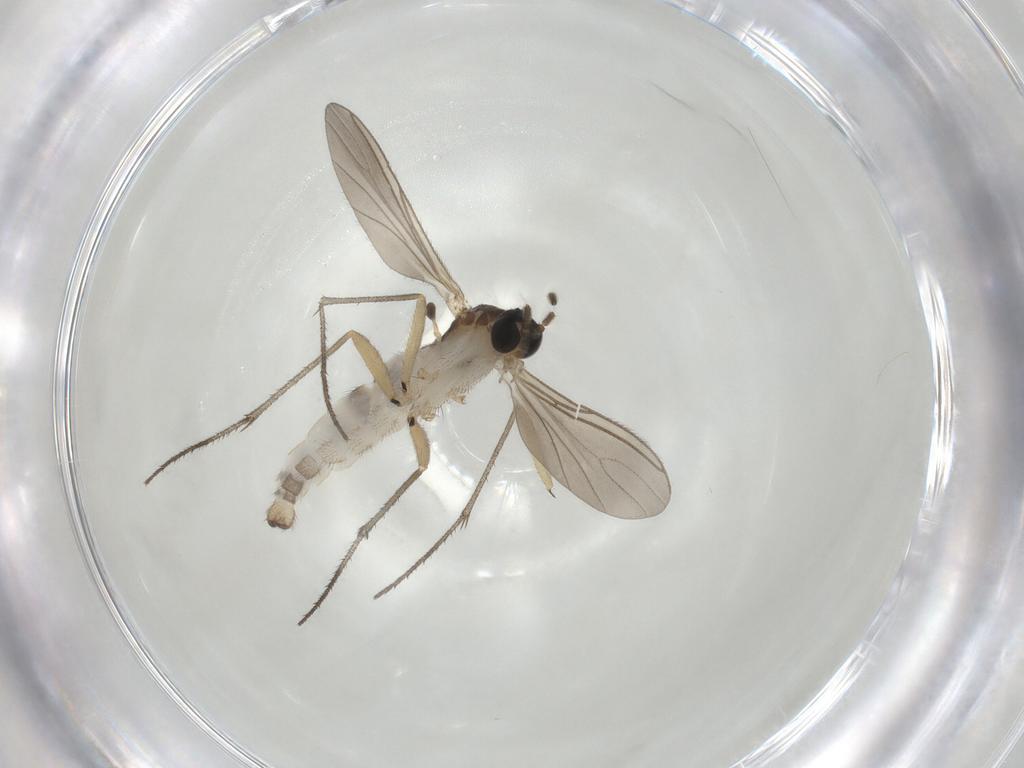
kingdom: Animalia
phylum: Arthropoda
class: Insecta
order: Diptera
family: Sciaridae
